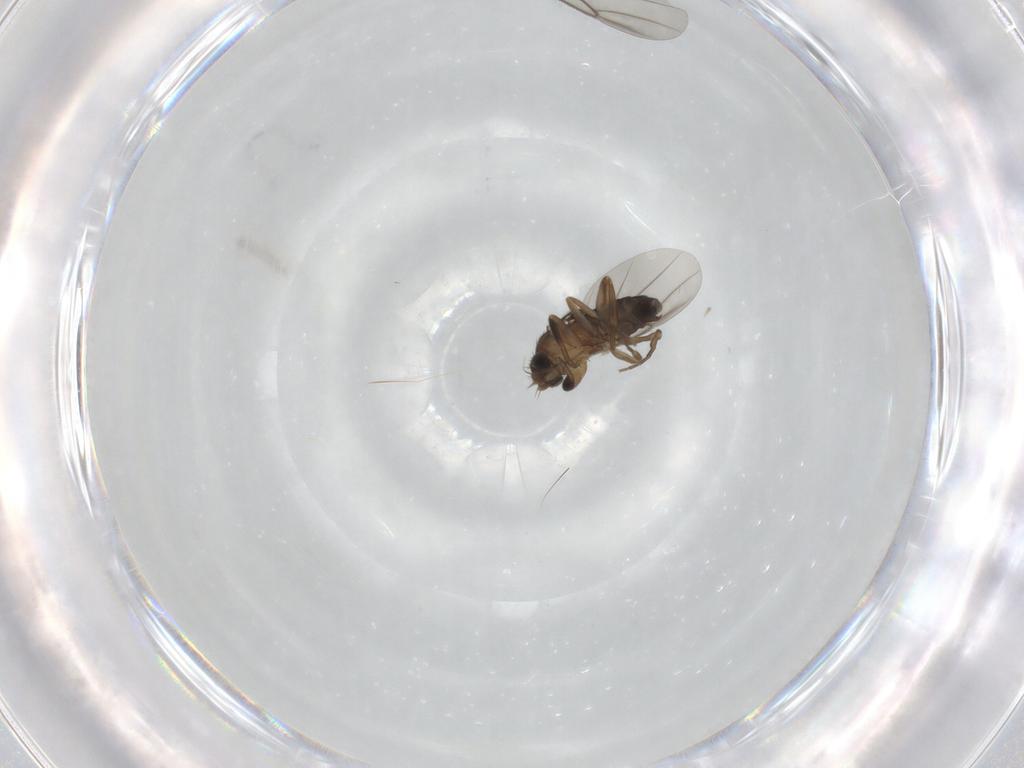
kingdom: Animalia
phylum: Arthropoda
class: Insecta
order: Diptera
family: Phoridae
